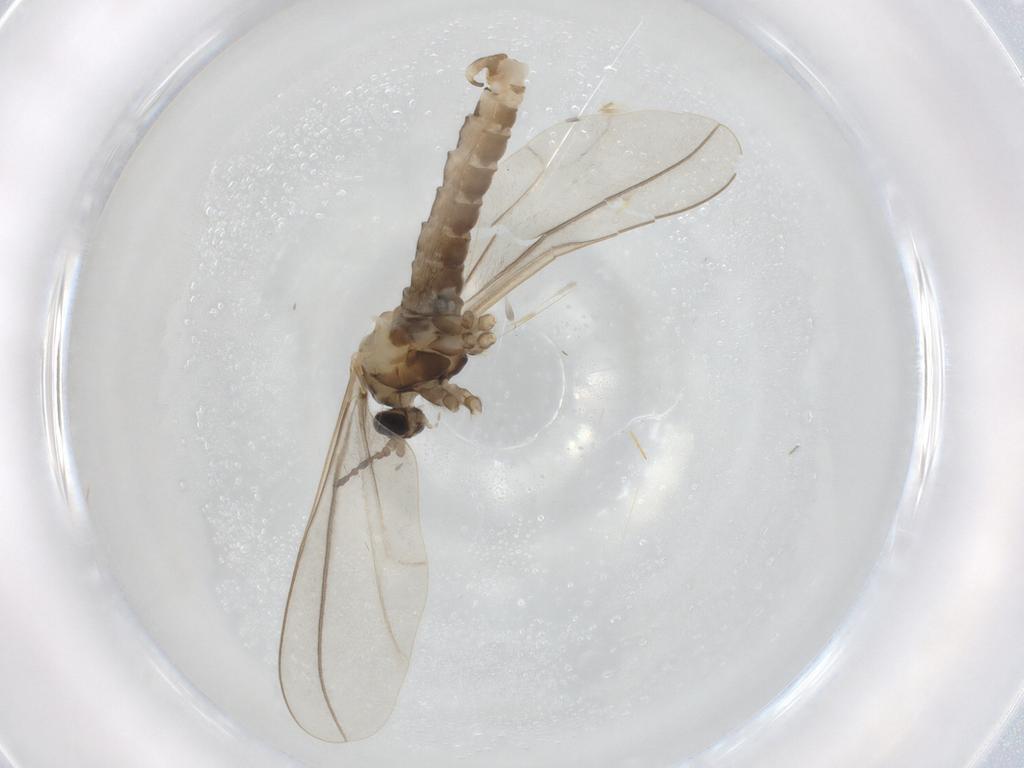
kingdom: Animalia
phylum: Arthropoda
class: Insecta
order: Diptera
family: Cecidomyiidae
